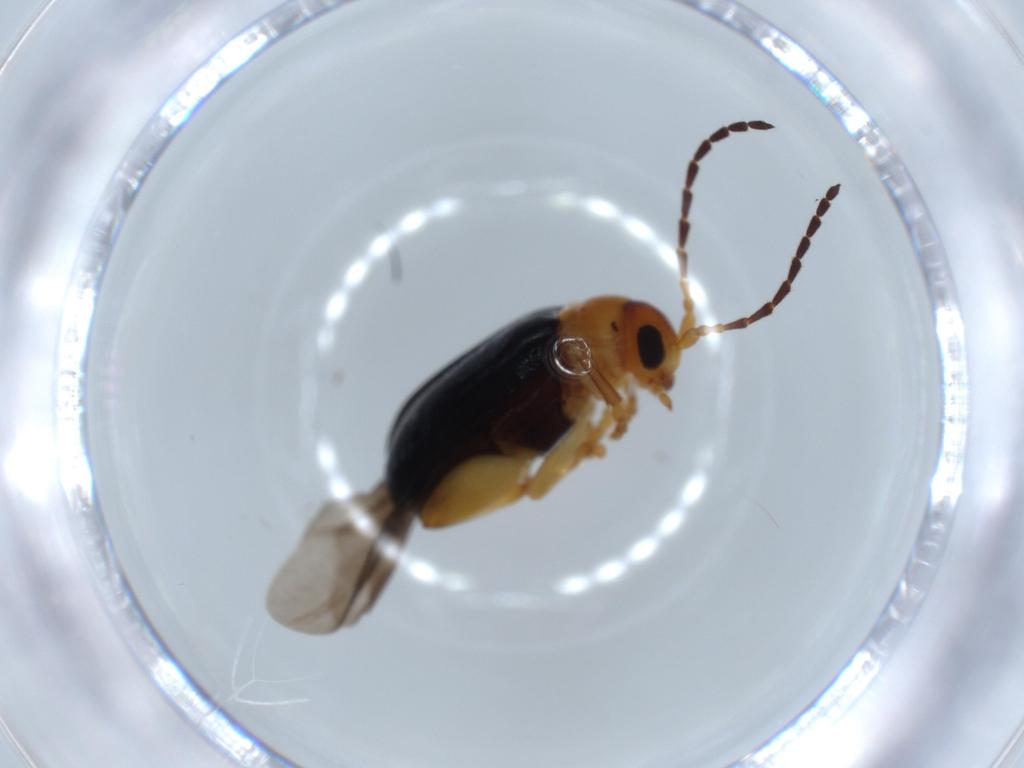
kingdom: Animalia
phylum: Arthropoda
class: Insecta
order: Coleoptera
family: Chrysomelidae
